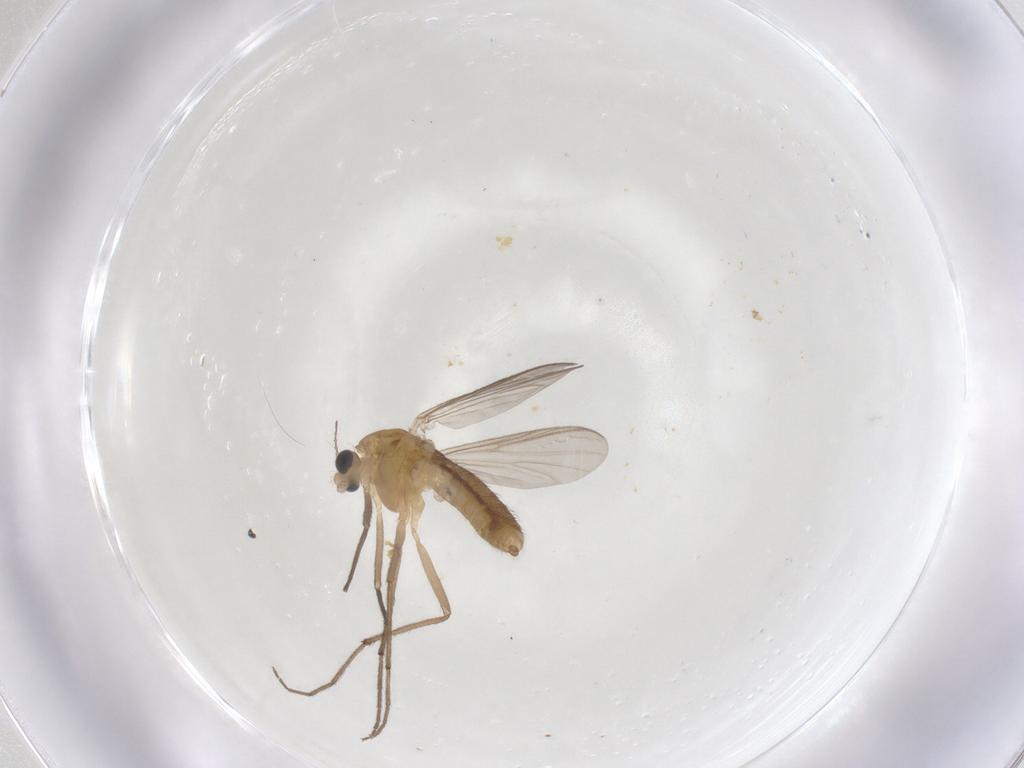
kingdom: Animalia
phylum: Arthropoda
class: Insecta
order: Diptera
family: Chironomidae
